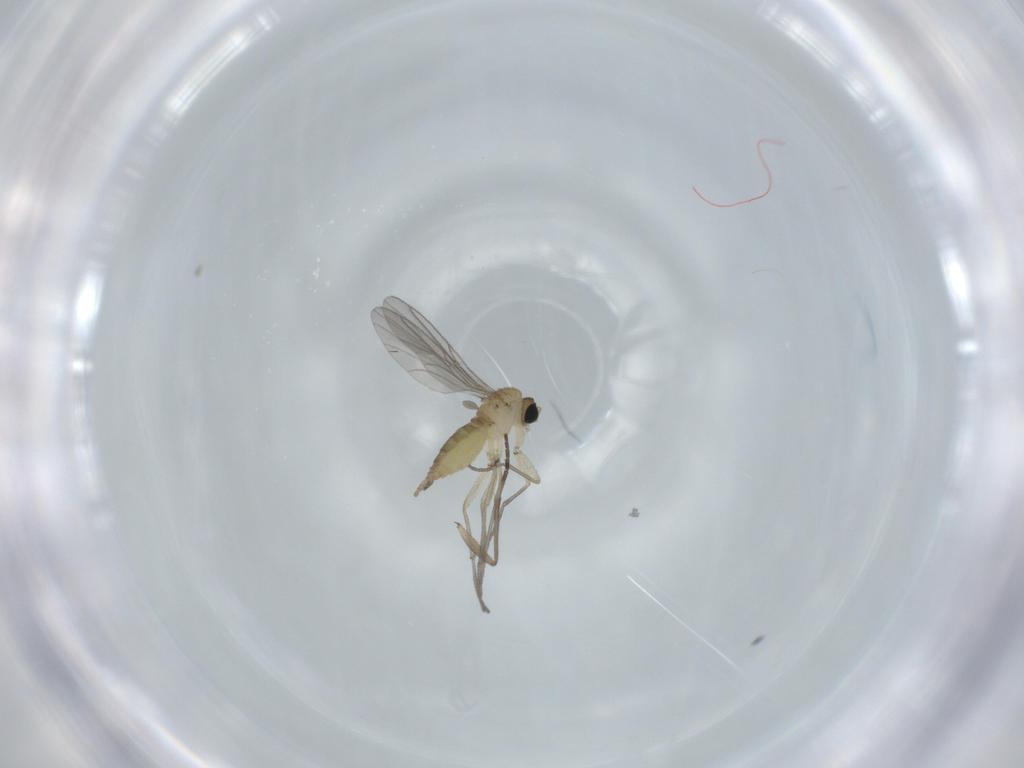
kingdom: Animalia
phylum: Arthropoda
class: Insecta
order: Diptera
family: Sciaridae
